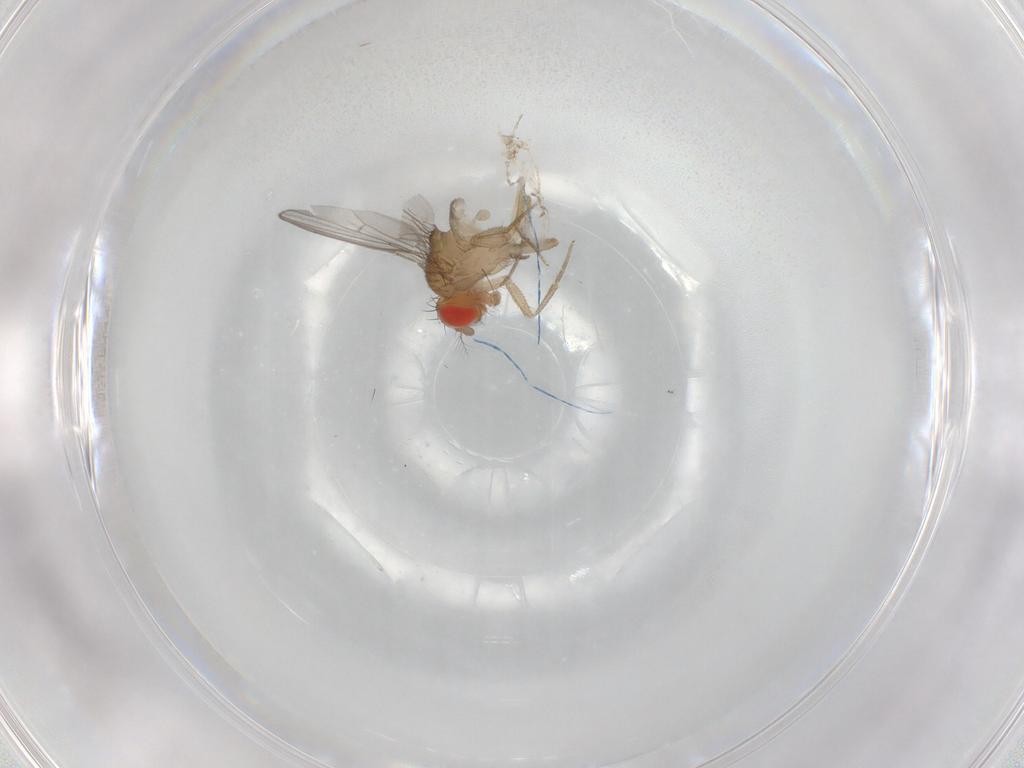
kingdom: Animalia
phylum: Arthropoda
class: Insecta
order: Diptera
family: Drosophilidae
